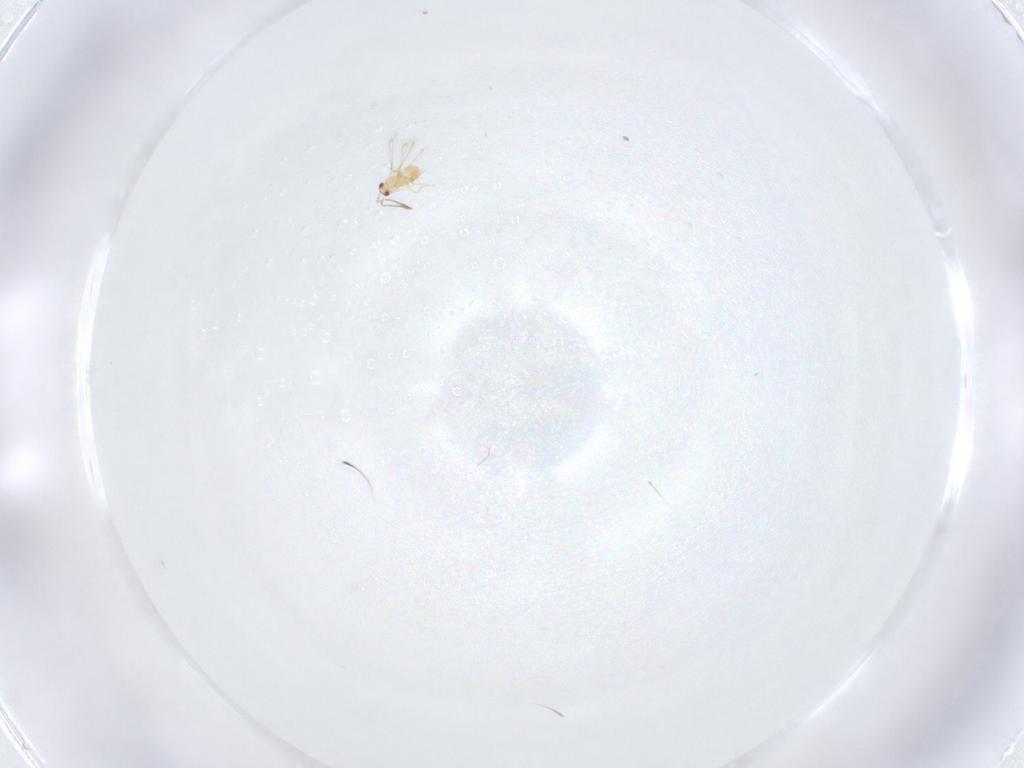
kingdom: Animalia
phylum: Arthropoda
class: Insecta
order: Hymenoptera
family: Mymaridae
